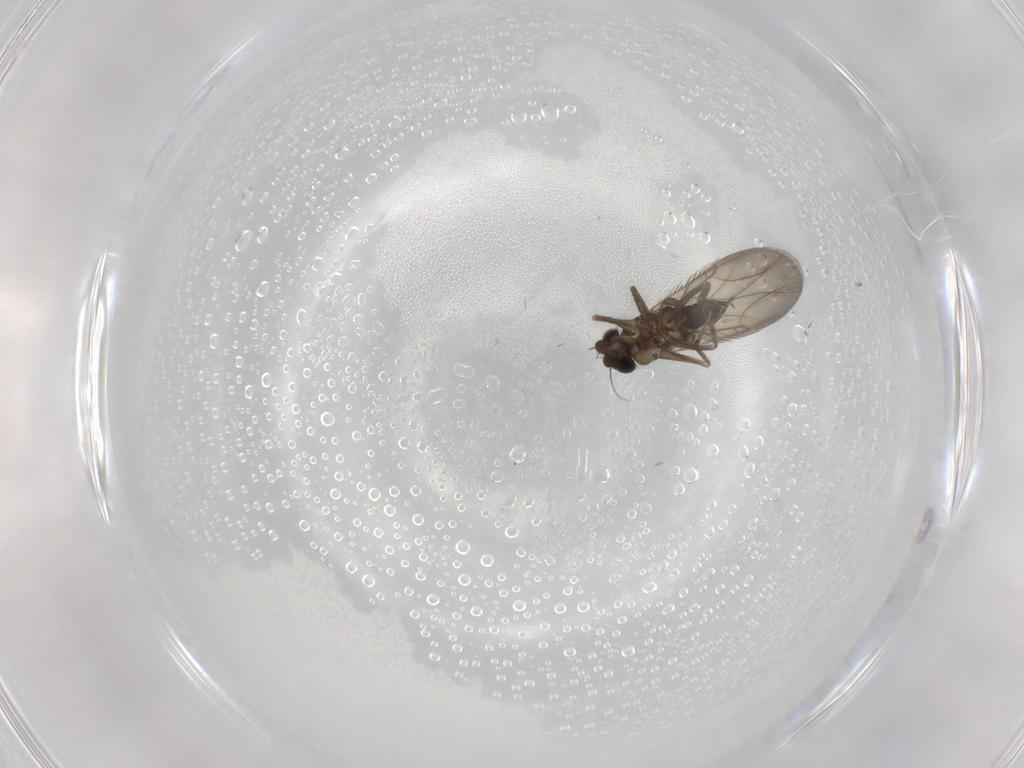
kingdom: Animalia
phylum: Arthropoda
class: Insecta
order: Diptera
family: Phoridae
